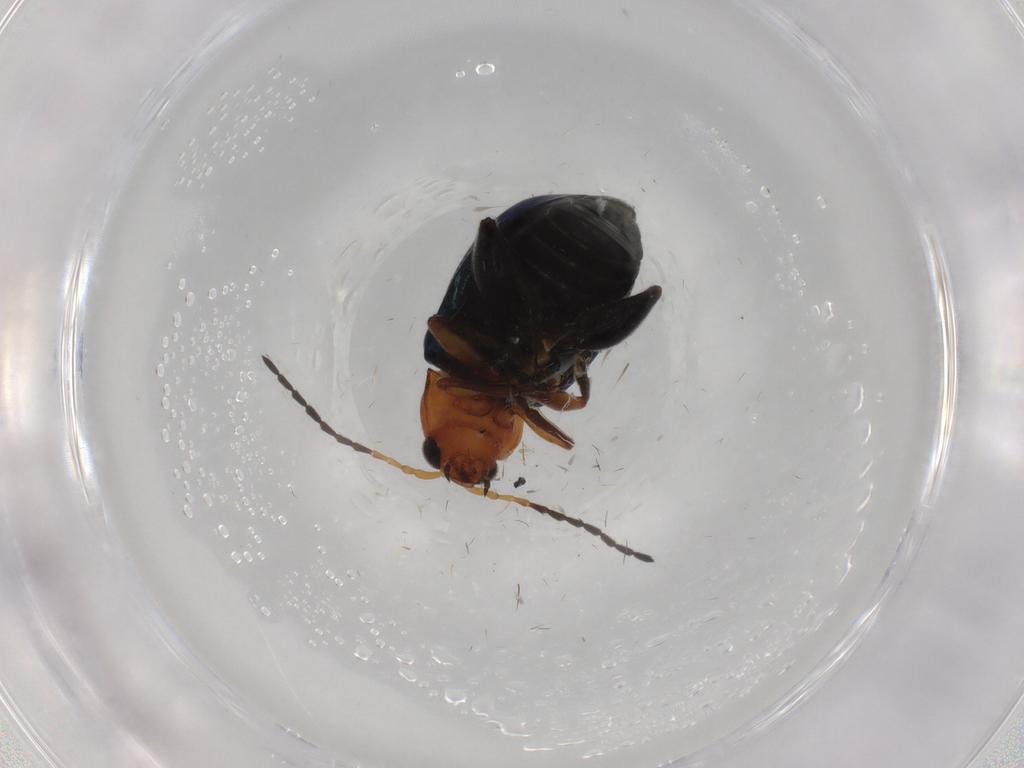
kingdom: Animalia
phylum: Arthropoda
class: Insecta
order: Coleoptera
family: Chrysomelidae
